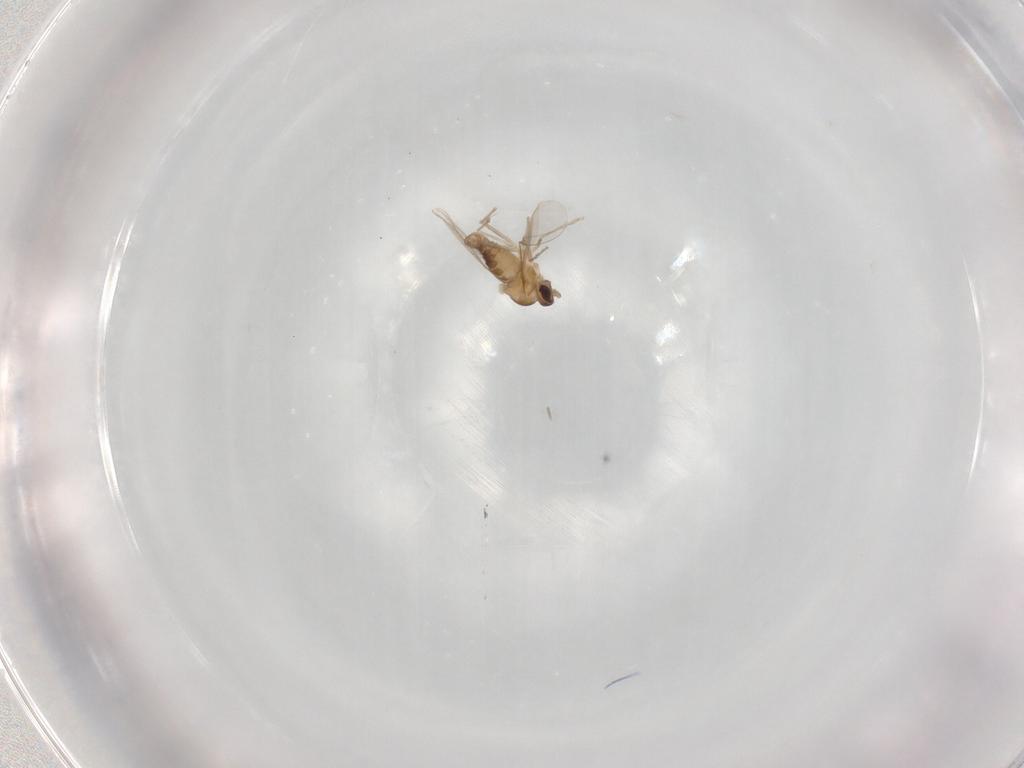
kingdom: Animalia
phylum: Arthropoda
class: Insecta
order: Diptera
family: Cecidomyiidae
